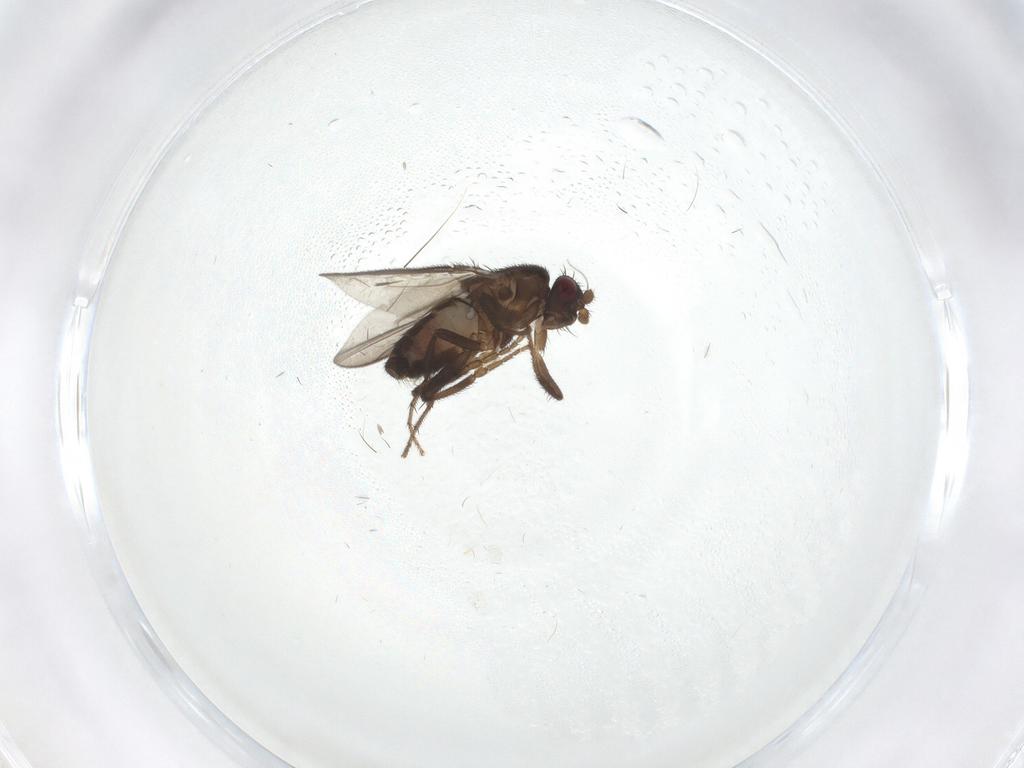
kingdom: Animalia
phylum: Arthropoda
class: Insecta
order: Diptera
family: Sphaeroceridae
